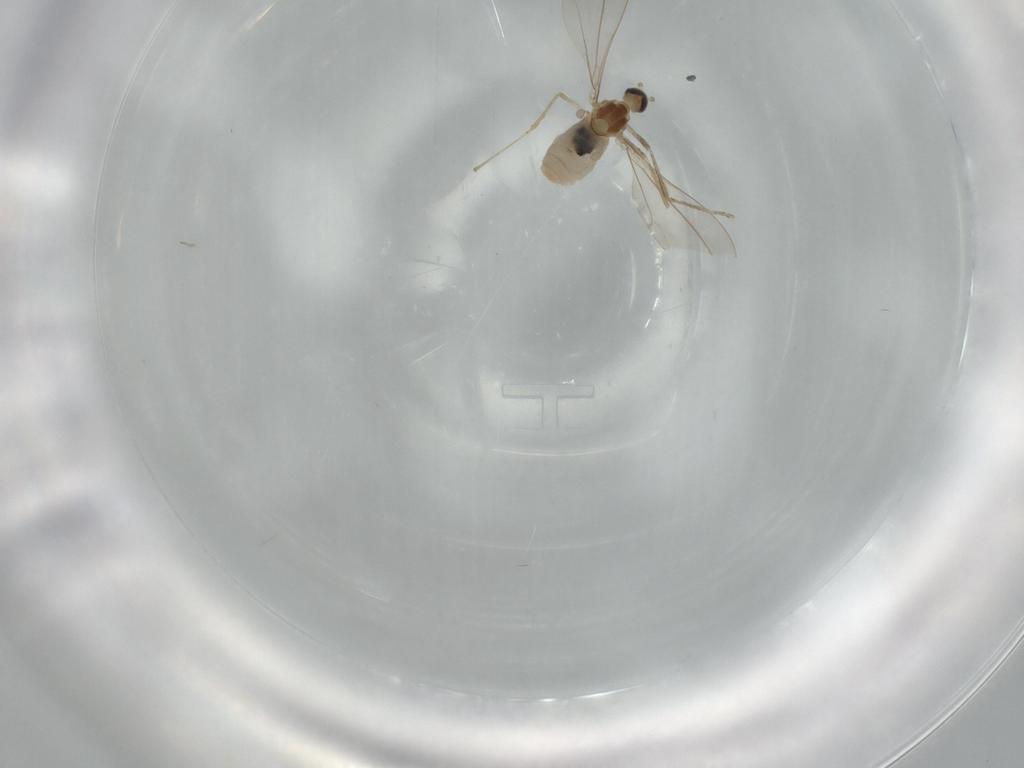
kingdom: Animalia
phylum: Arthropoda
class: Insecta
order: Diptera
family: Cecidomyiidae
